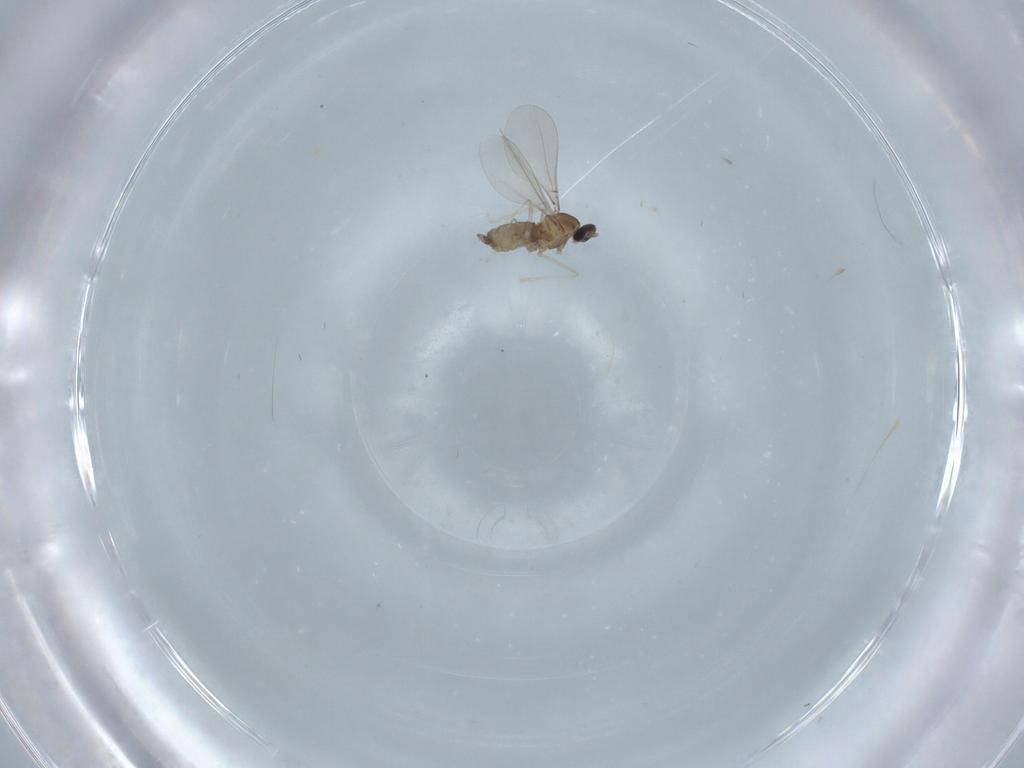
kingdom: Animalia
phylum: Arthropoda
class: Insecta
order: Diptera
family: Cecidomyiidae
